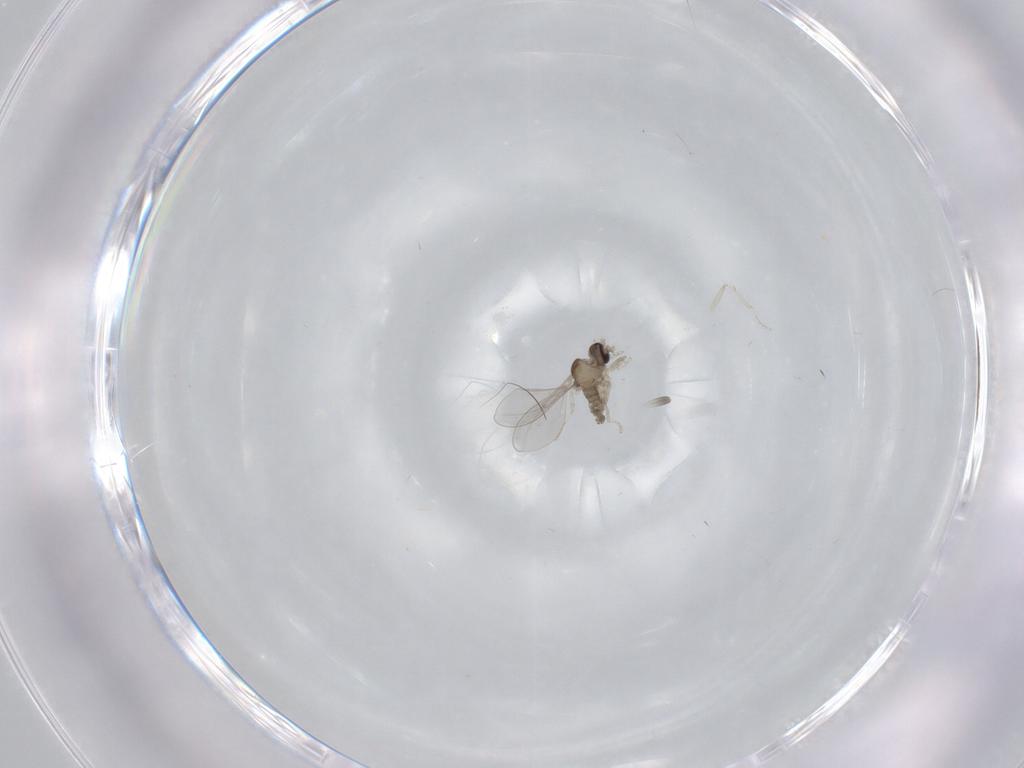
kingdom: Animalia
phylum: Arthropoda
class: Insecta
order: Diptera
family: Cecidomyiidae
